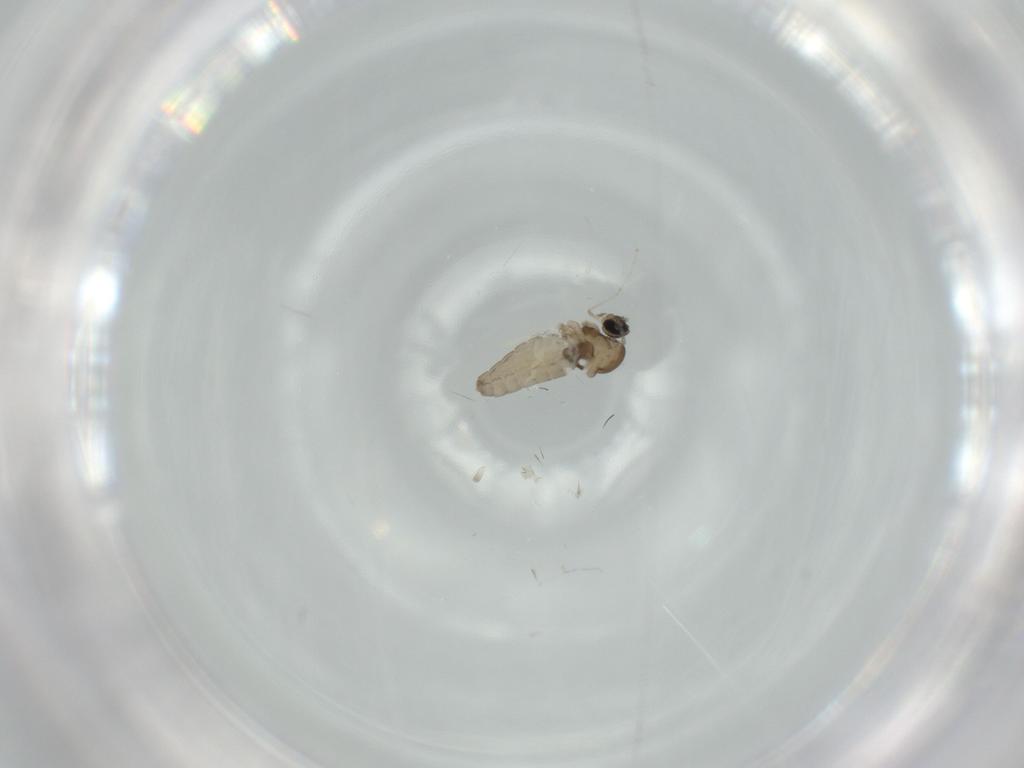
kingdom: Animalia
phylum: Arthropoda
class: Insecta
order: Diptera
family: Cecidomyiidae
